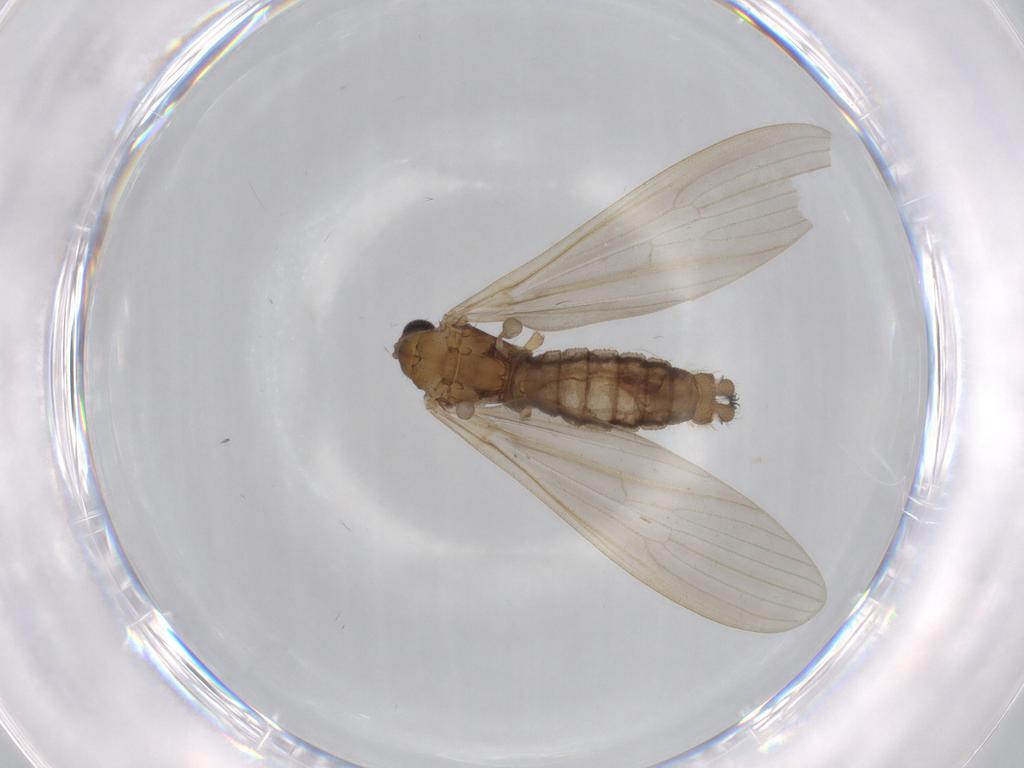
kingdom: Animalia
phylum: Arthropoda
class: Insecta
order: Diptera
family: Limoniidae
